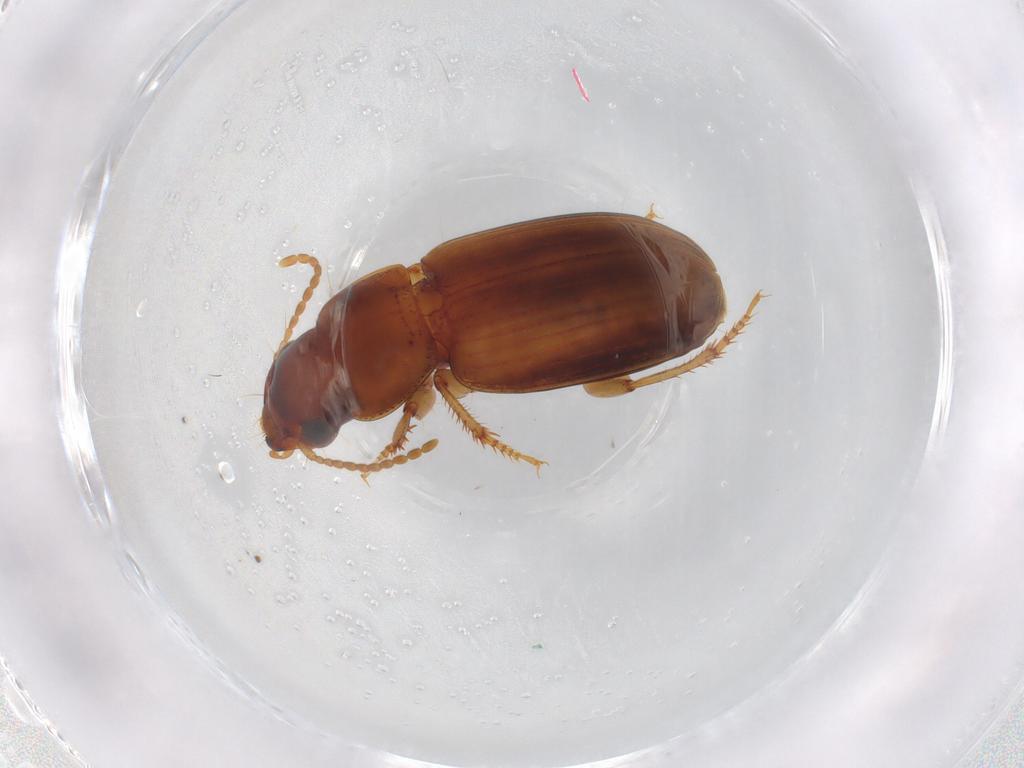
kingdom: Animalia
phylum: Arthropoda
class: Insecta
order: Coleoptera
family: Carabidae
